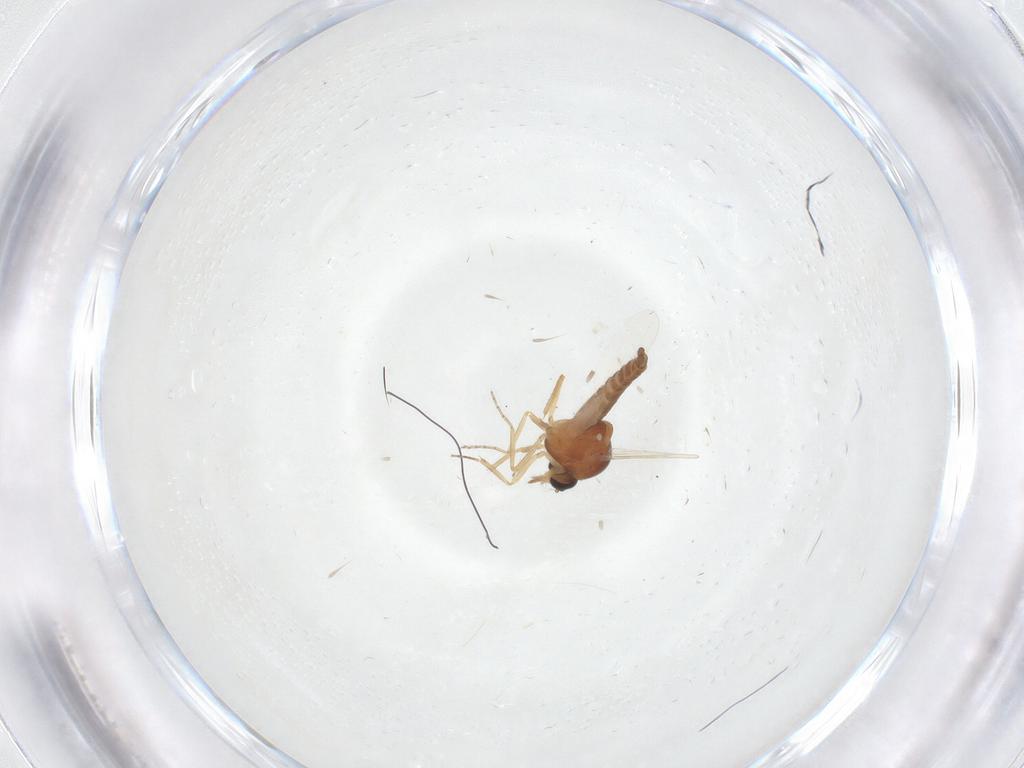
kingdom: Animalia
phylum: Arthropoda
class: Insecta
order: Diptera
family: Ceratopogonidae
